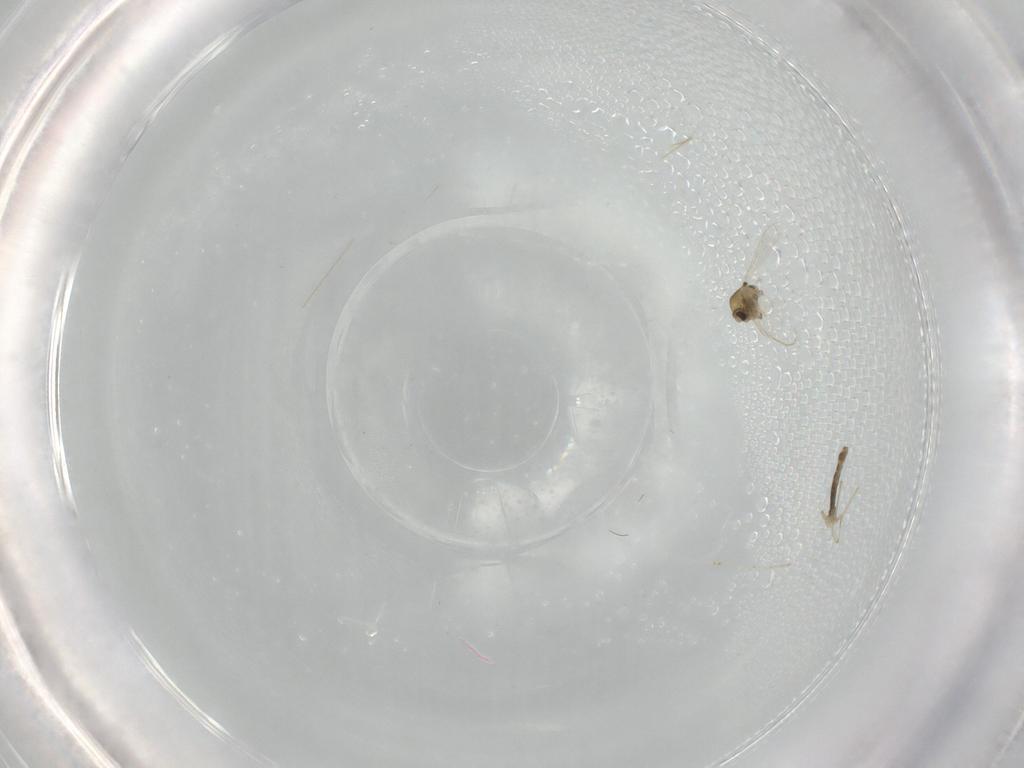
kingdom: Animalia
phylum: Arthropoda
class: Insecta
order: Diptera
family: Chironomidae
